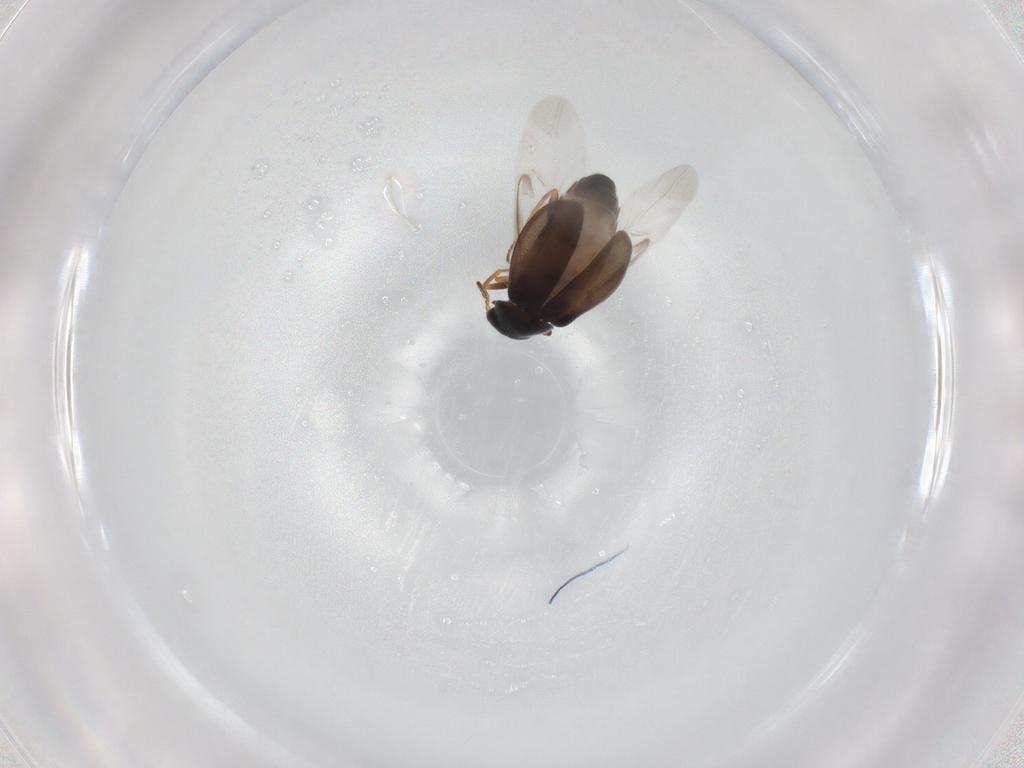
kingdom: Animalia
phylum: Arthropoda
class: Insecta
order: Coleoptera
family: Melyridae
